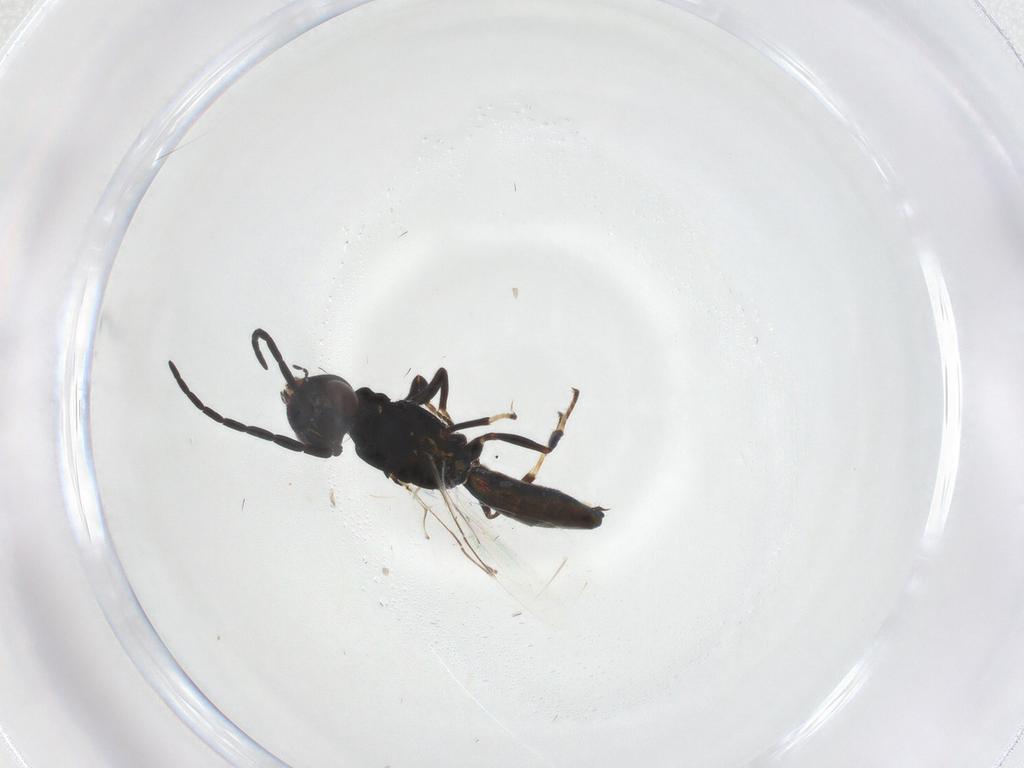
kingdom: Animalia
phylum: Arthropoda
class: Insecta
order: Hymenoptera
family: Eulophidae
